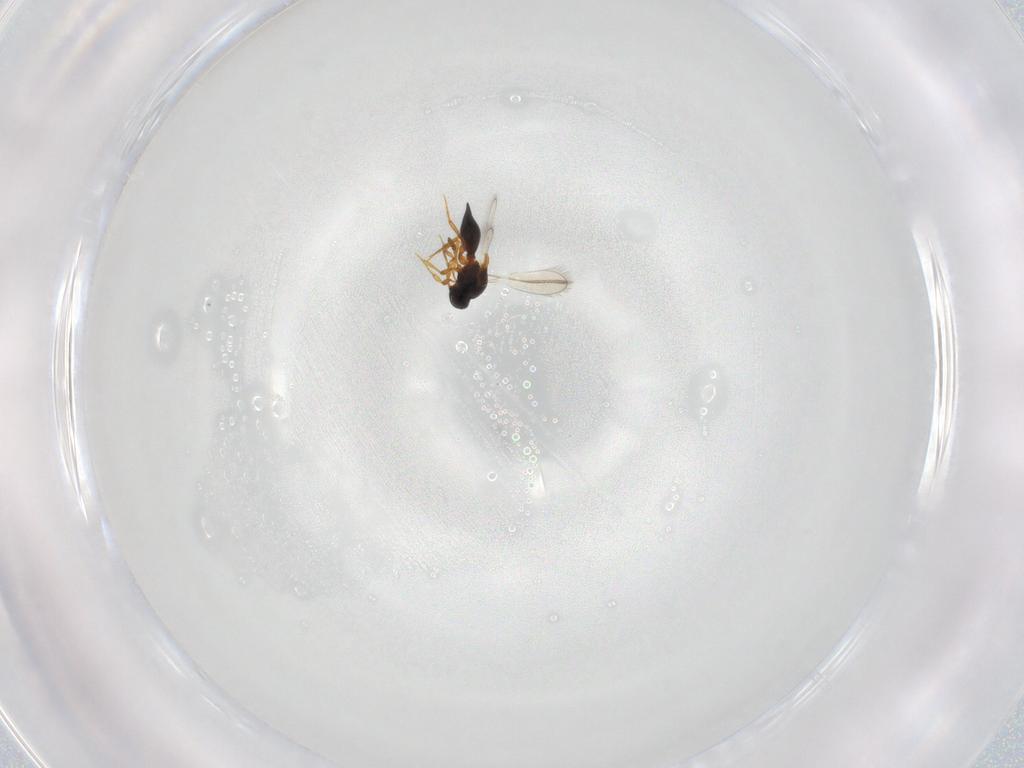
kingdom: Animalia
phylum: Arthropoda
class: Insecta
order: Hymenoptera
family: Platygastridae
